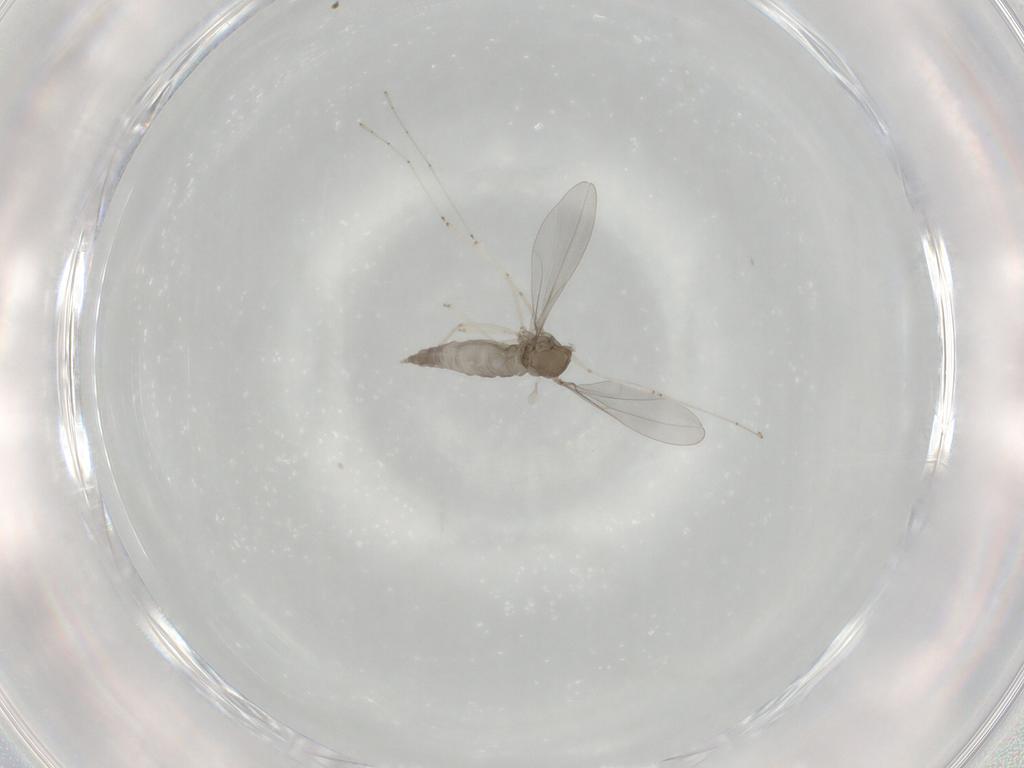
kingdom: Animalia
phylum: Arthropoda
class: Insecta
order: Diptera
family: Cecidomyiidae
